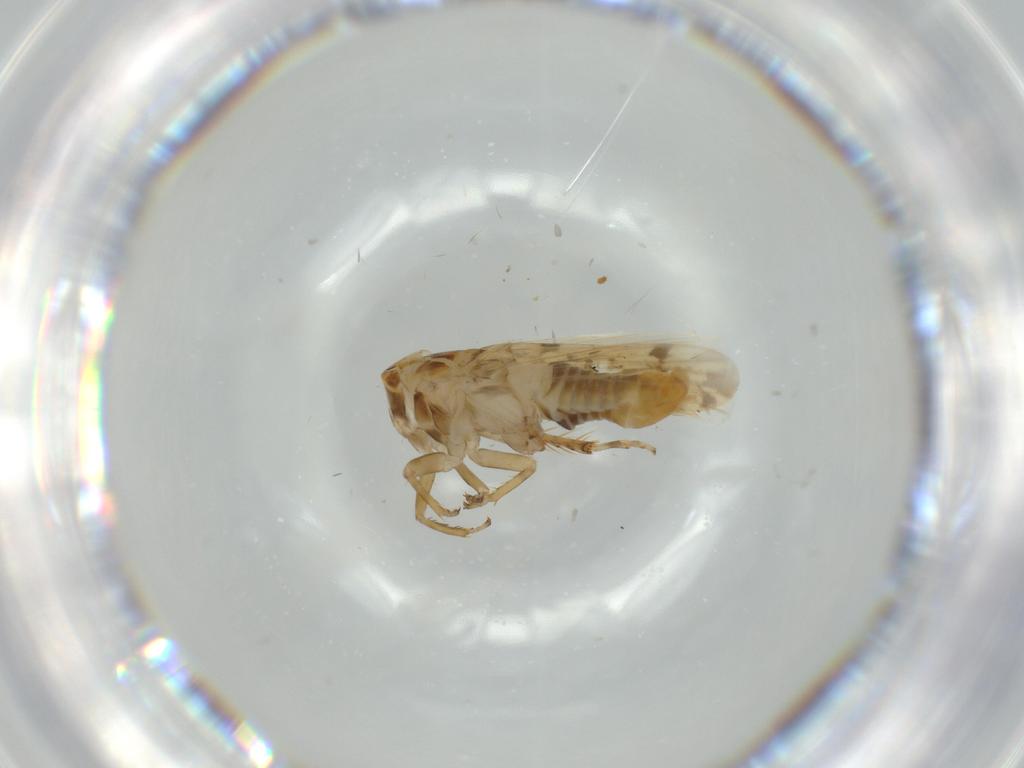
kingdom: Animalia
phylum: Arthropoda
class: Insecta
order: Hemiptera
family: Cicadellidae
